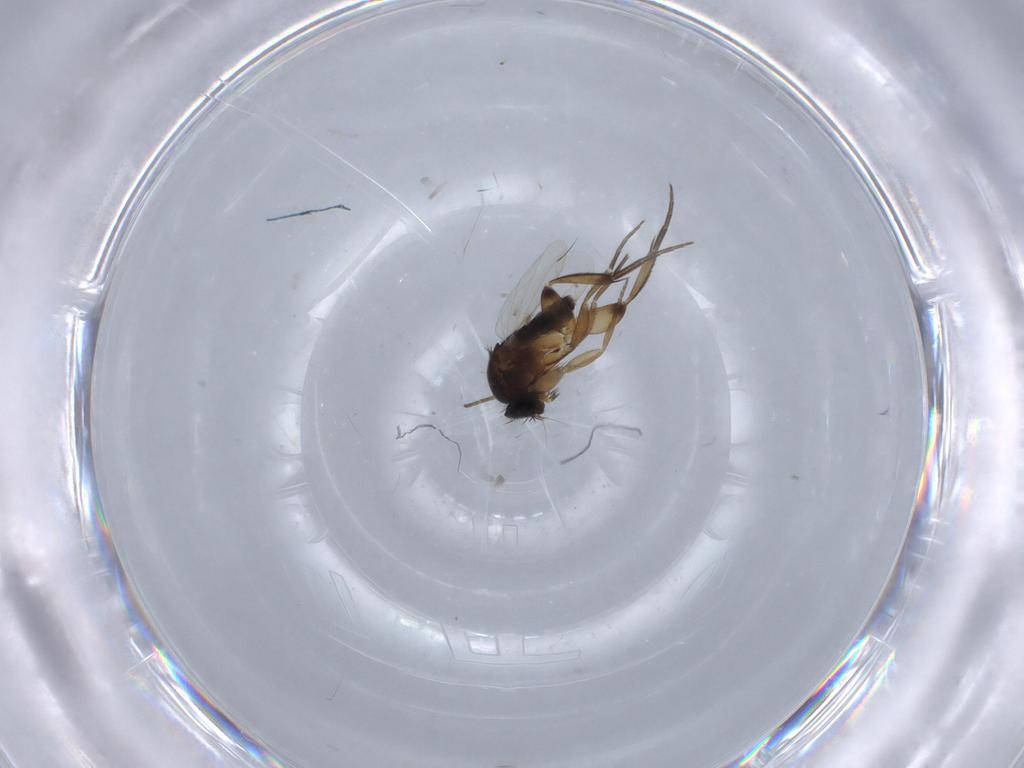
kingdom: Animalia
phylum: Arthropoda
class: Insecta
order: Diptera
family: Phoridae
